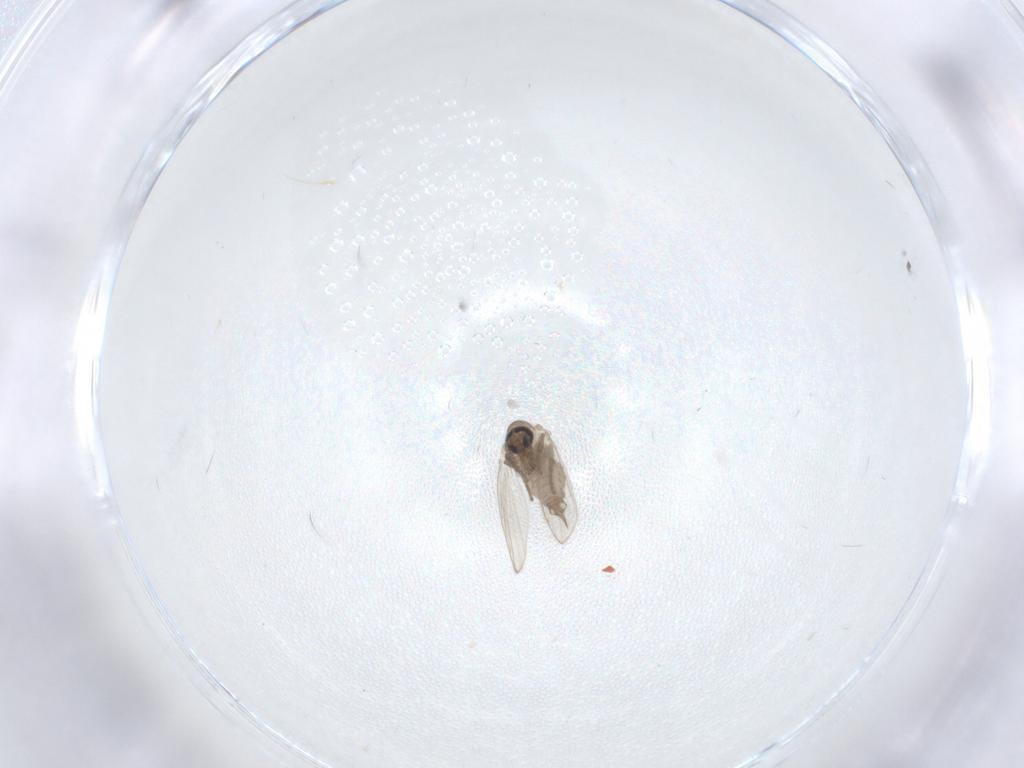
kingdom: Animalia
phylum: Arthropoda
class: Insecta
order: Diptera
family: Psychodidae
